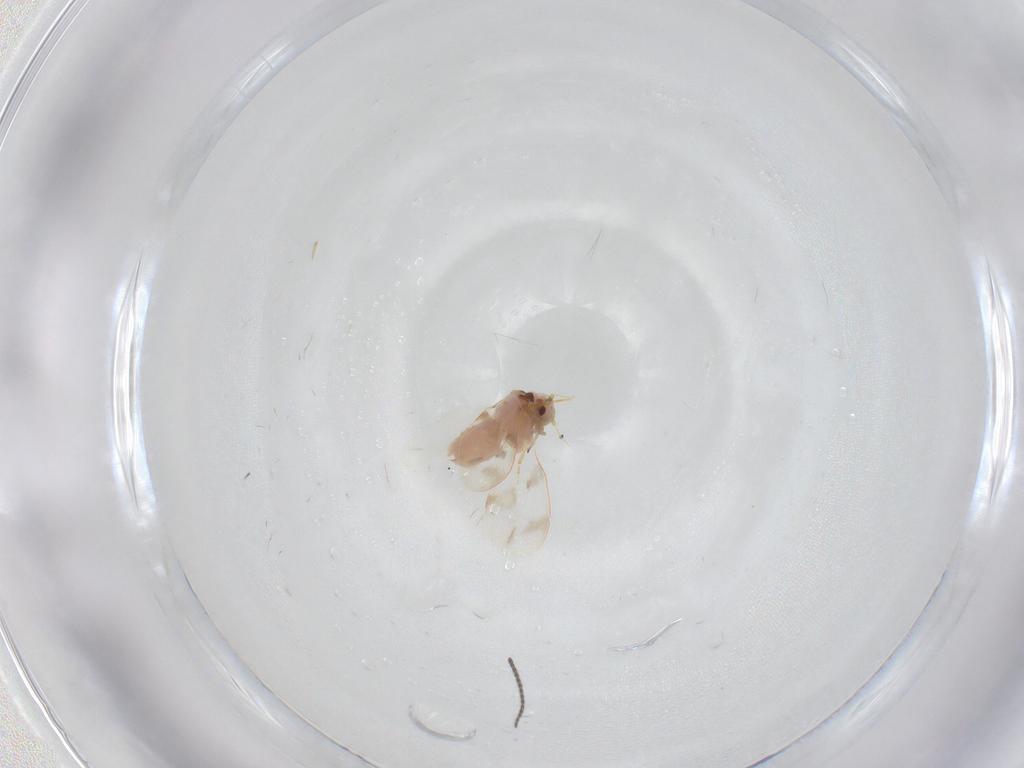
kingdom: Animalia
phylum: Arthropoda
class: Insecta
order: Hemiptera
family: Aleyrodidae
